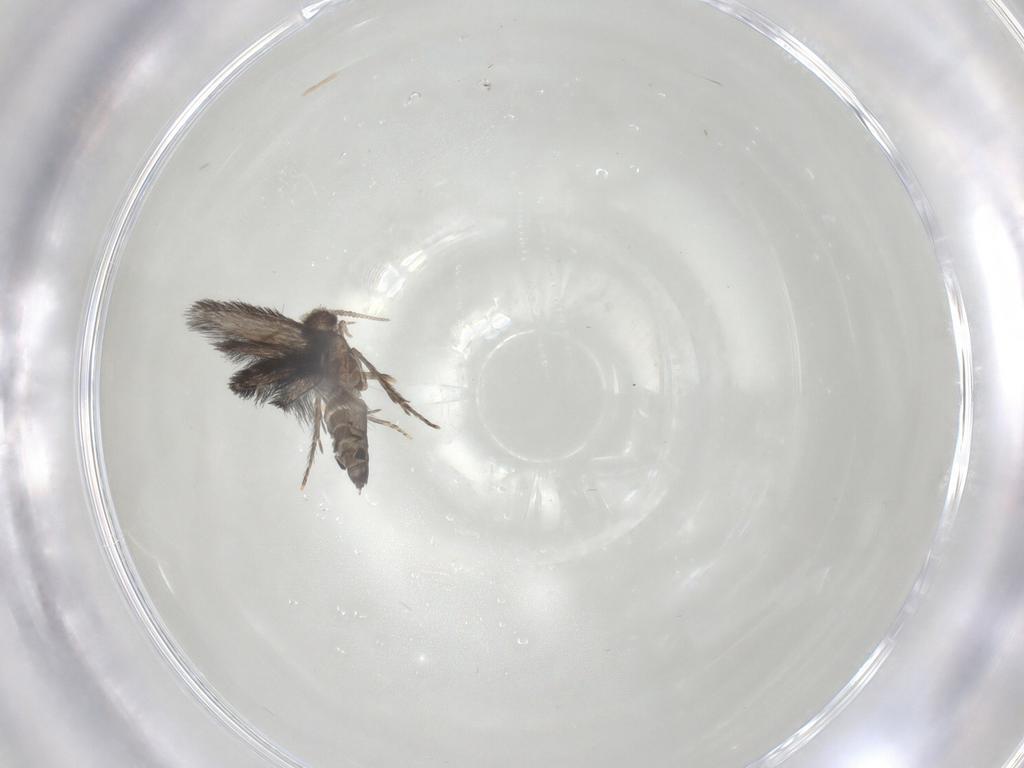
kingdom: Animalia
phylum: Arthropoda
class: Insecta
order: Trichoptera
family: Hydroptilidae
